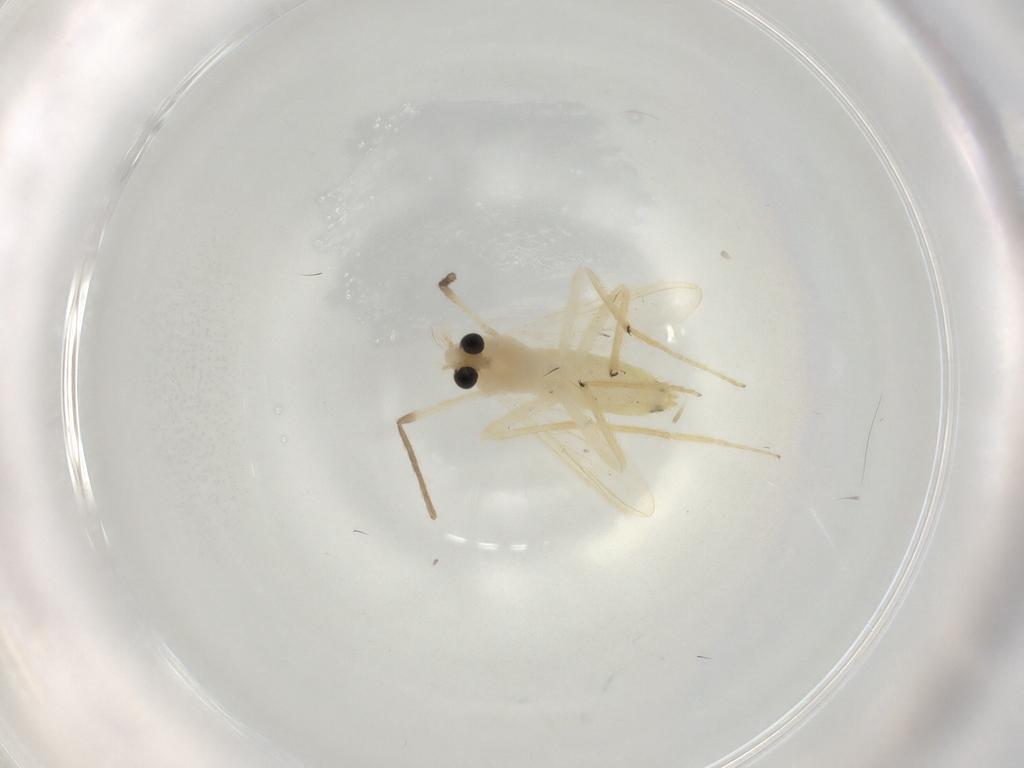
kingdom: Animalia
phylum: Arthropoda
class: Insecta
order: Diptera
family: Chironomidae
